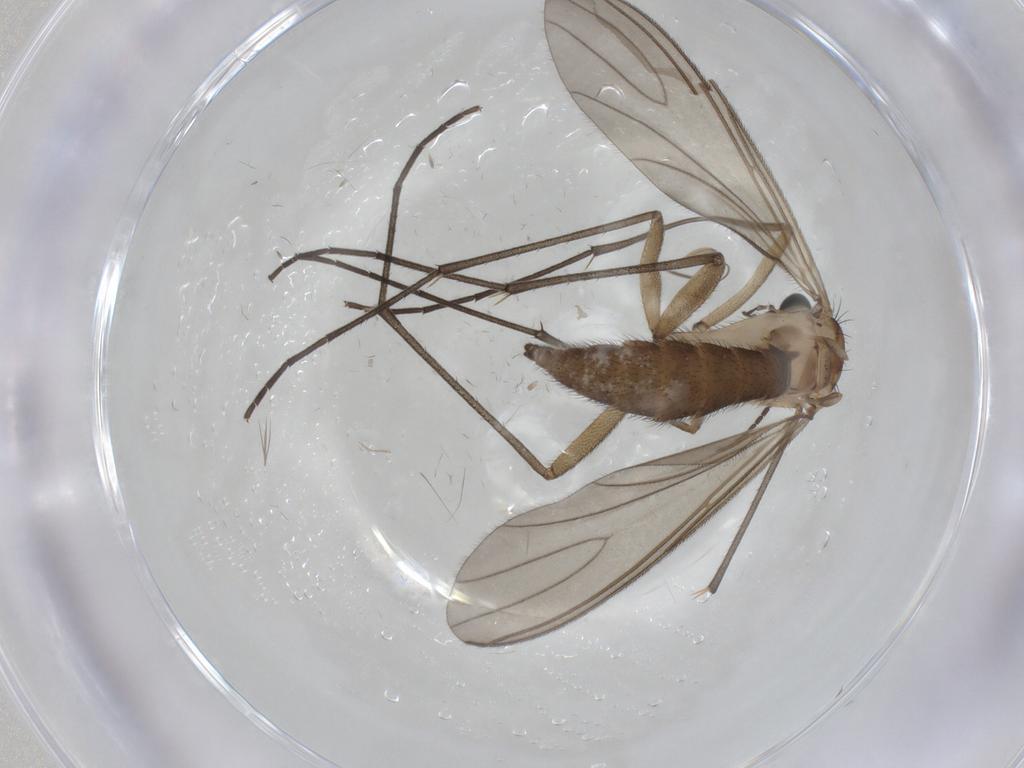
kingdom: Animalia
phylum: Arthropoda
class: Insecta
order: Diptera
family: Sciaridae
